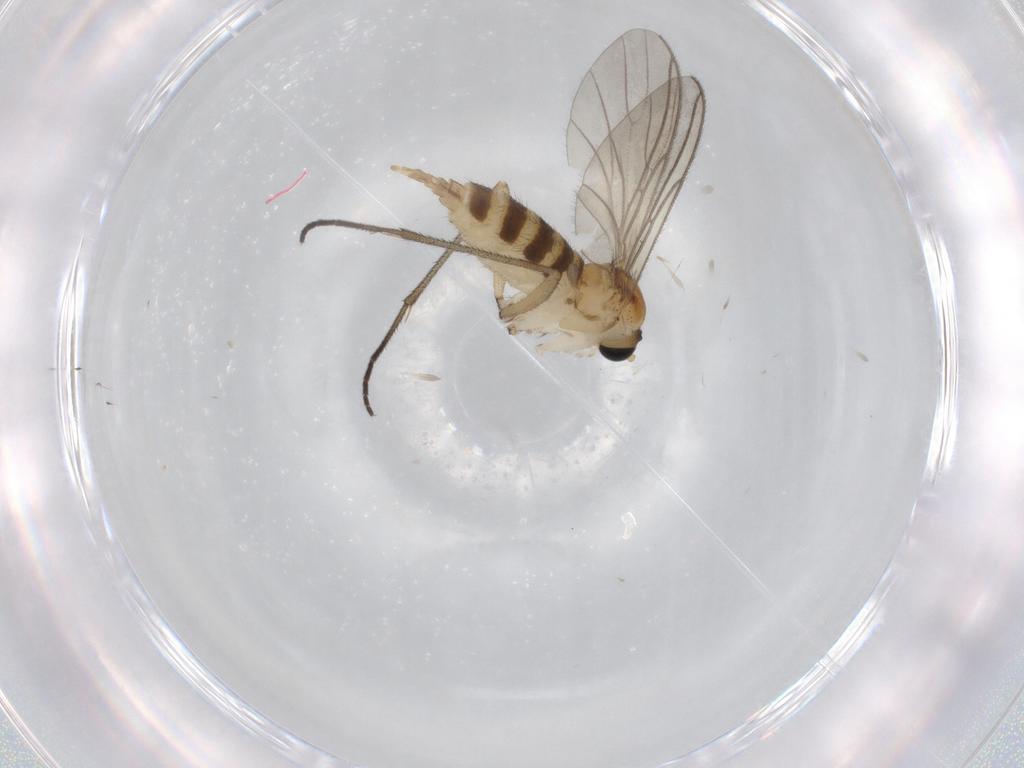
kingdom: Animalia
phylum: Arthropoda
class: Insecta
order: Diptera
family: Sciaridae
